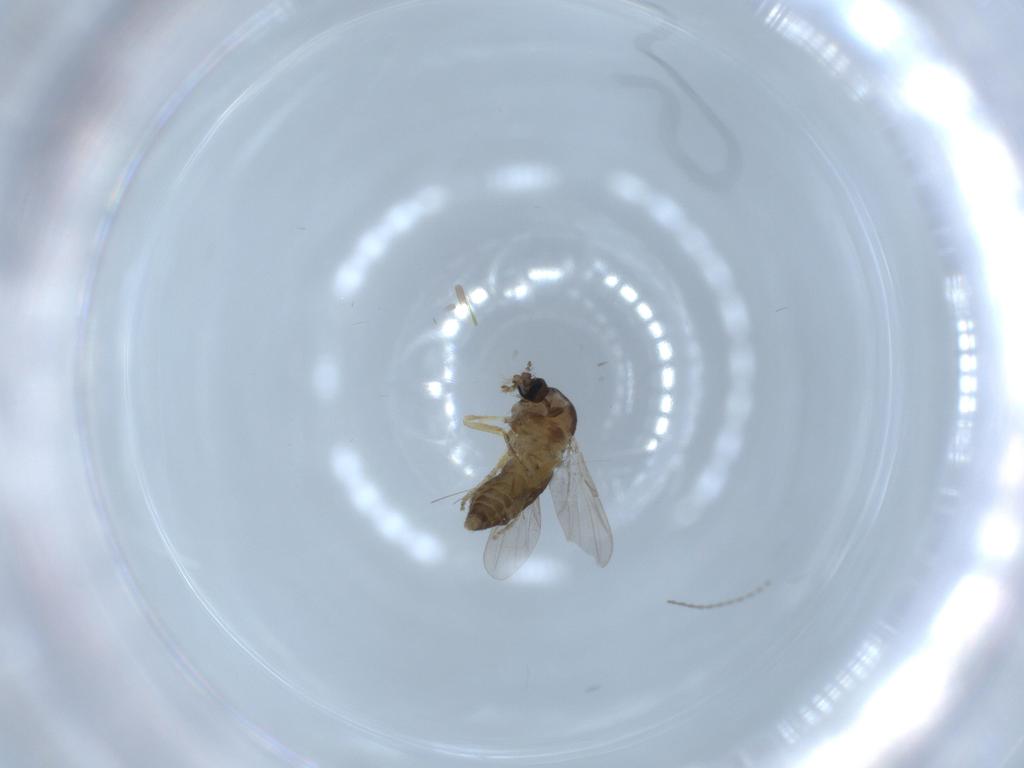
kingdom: Animalia
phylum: Arthropoda
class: Insecta
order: Diptera
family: Ceratopogonidae
